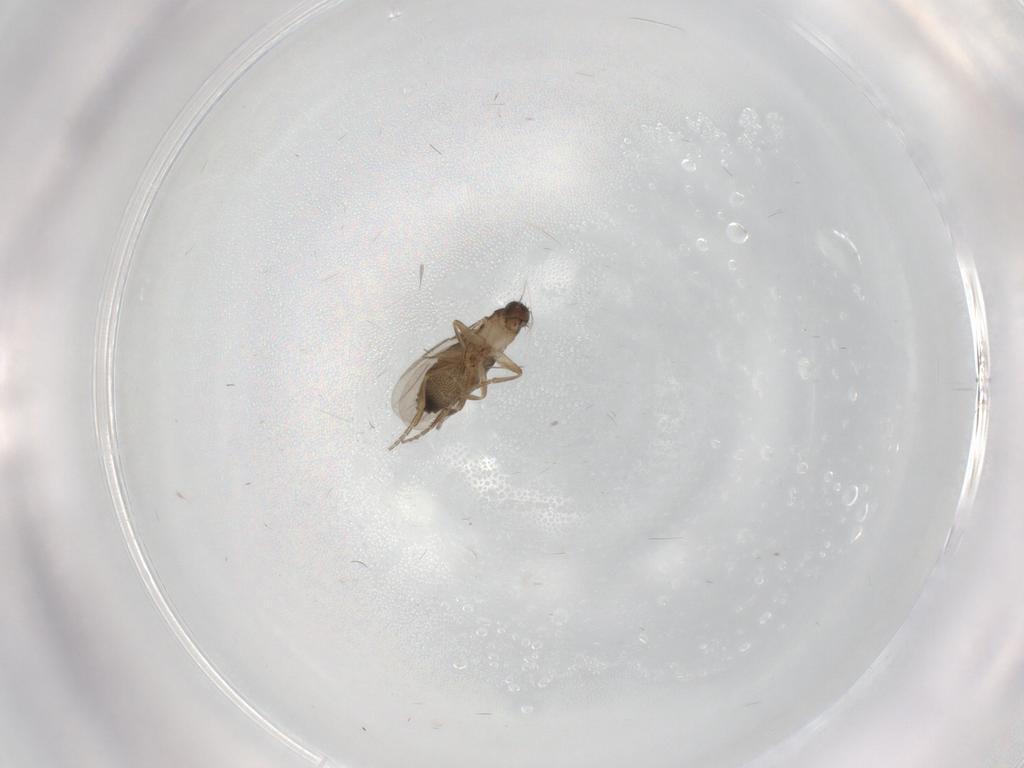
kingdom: Animalia
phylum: Arthropoda
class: Insecta
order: Diptera
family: Phoridae
